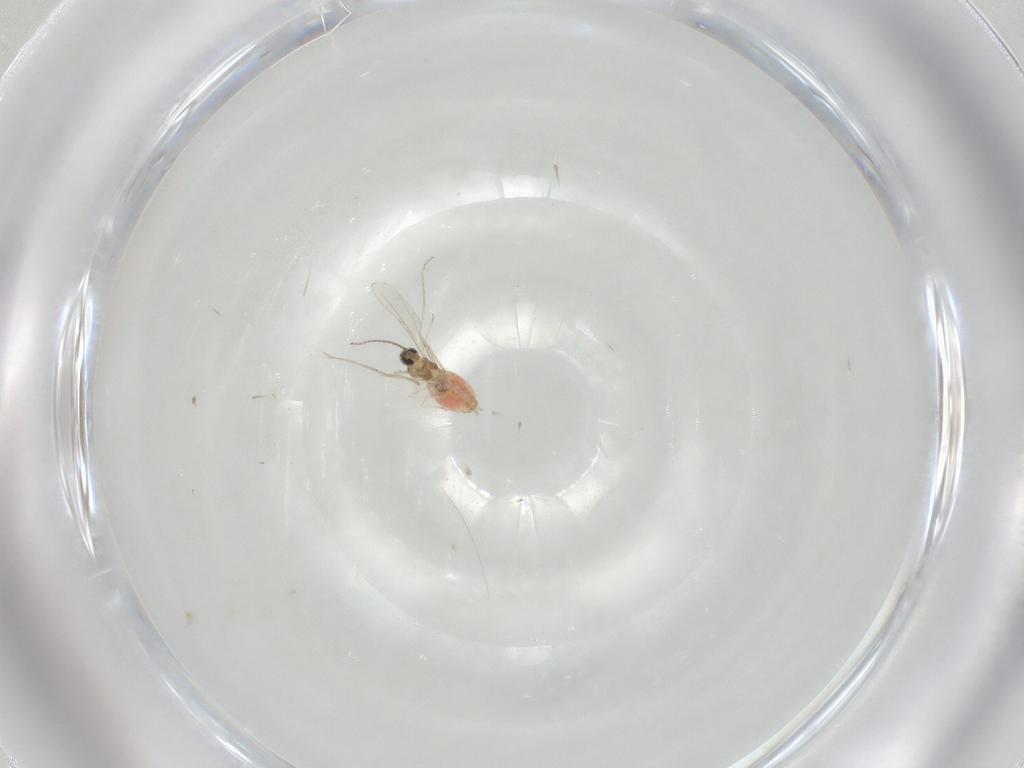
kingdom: Animalia
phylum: Arthropoda
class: Insecta
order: Diptera
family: Cecidomyiidae
